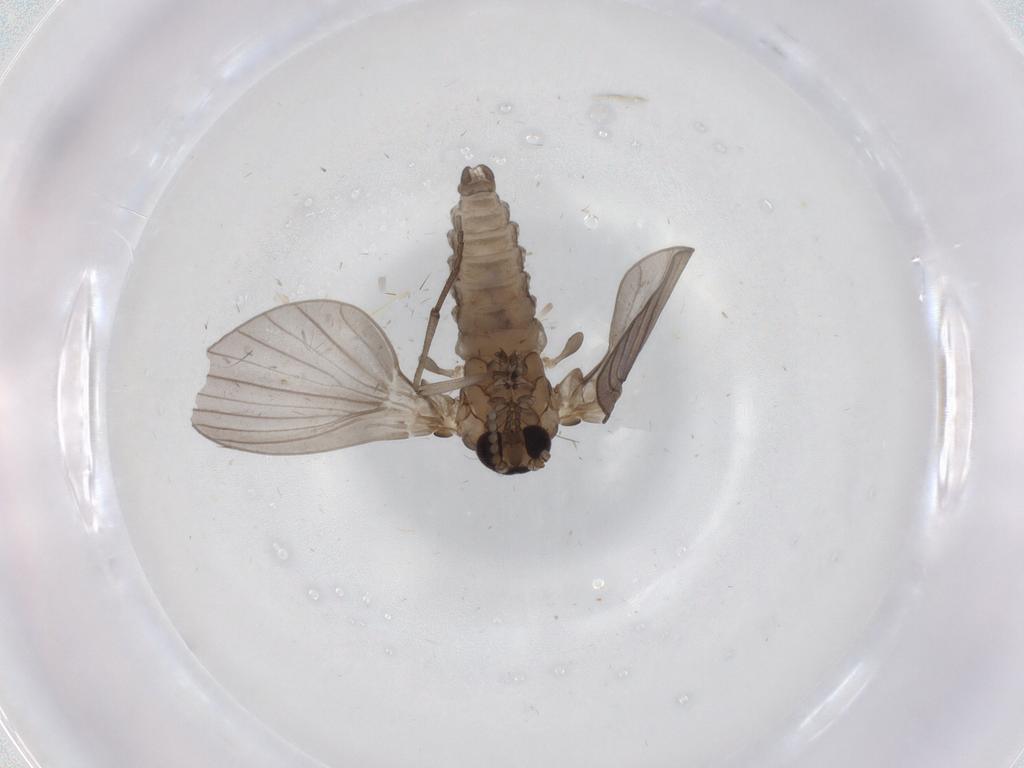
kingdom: Animalia
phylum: Arthropoda
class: Insecta
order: Diptera
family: Psychodidae
